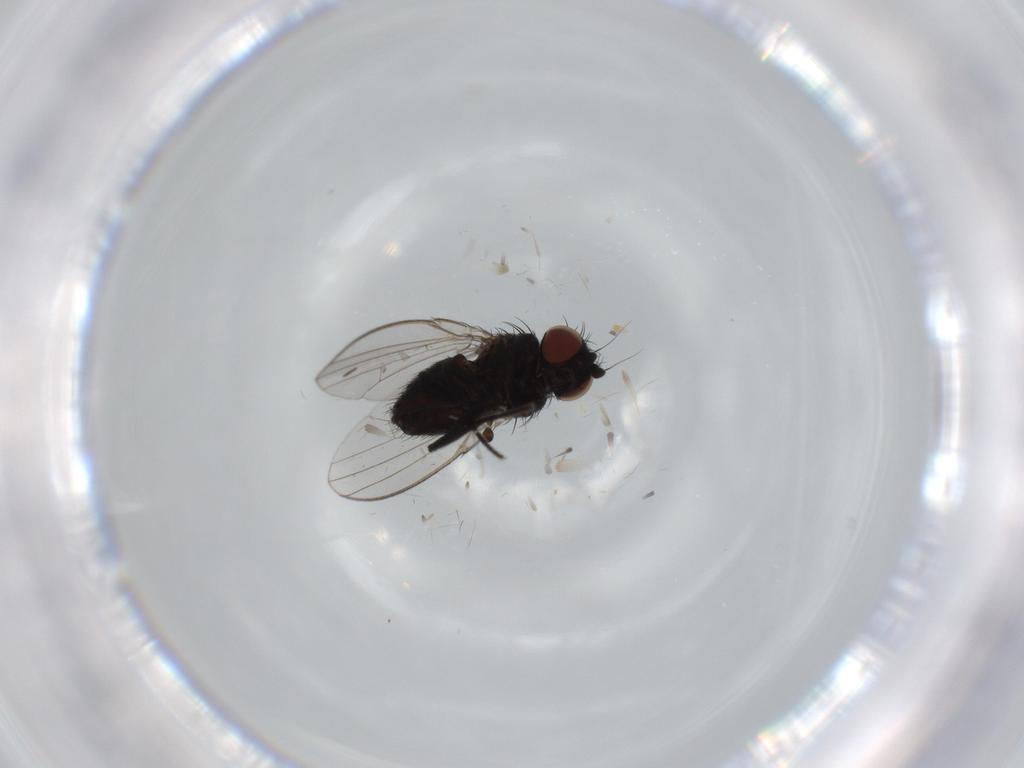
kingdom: Animalia
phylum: Arthropoda
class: Insecta
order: Diptera
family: Milichiidae
